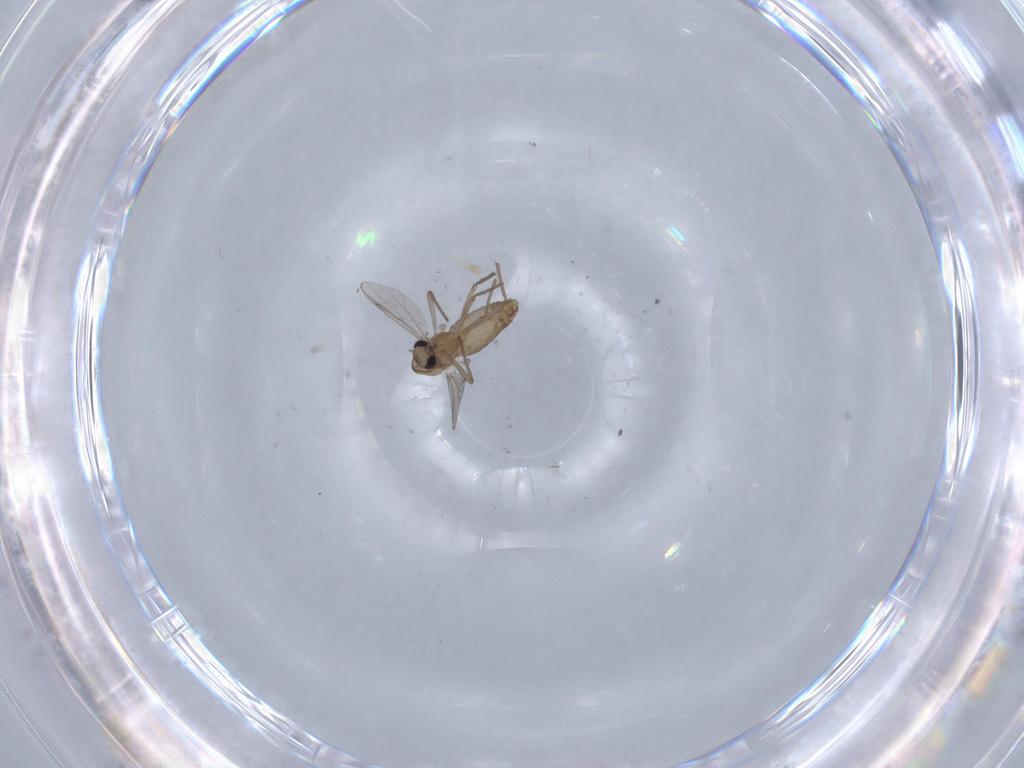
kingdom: Animalia
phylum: Arthropoda
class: Insecta
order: Diptera
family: Chironomidae
